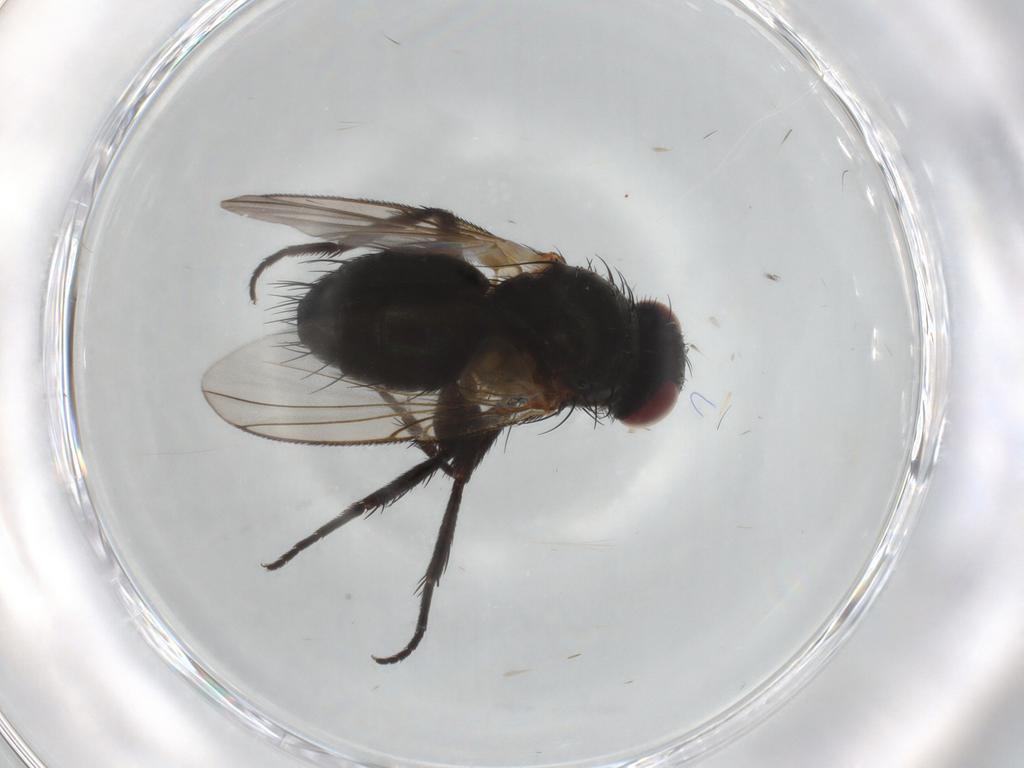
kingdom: Animalia
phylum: Arthropoda
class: Insecta
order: Diptera
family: Tachinidae
